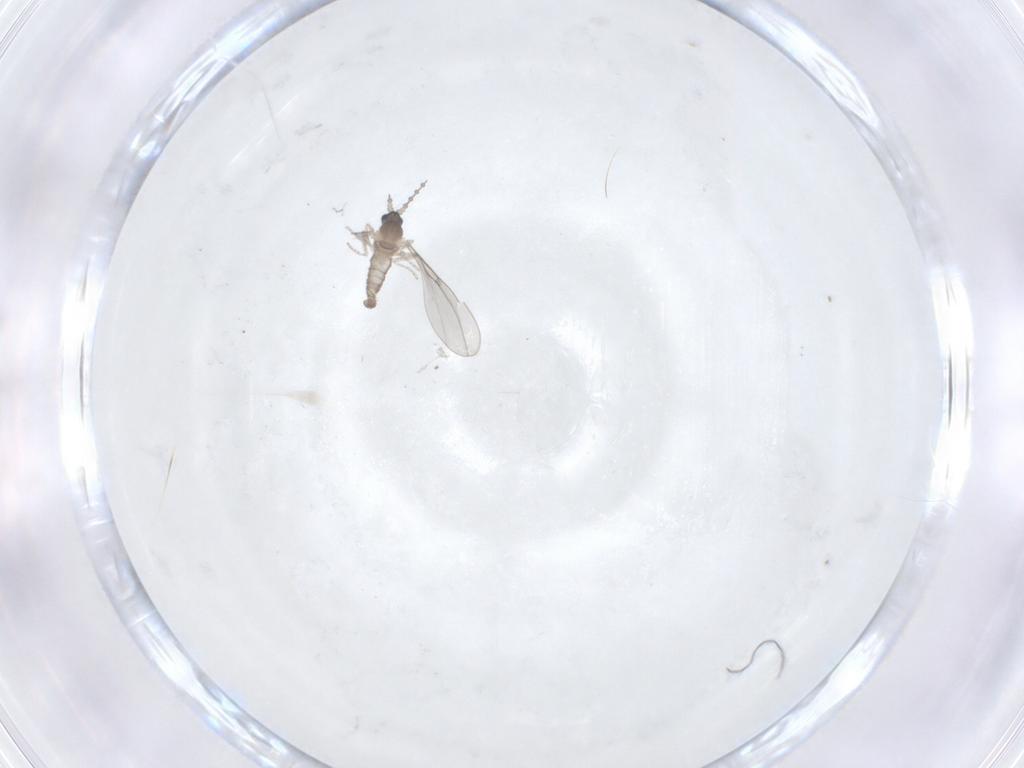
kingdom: Animalia
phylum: Arthropoda
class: Insecta
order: Diptera
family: Cecidomyiidae
